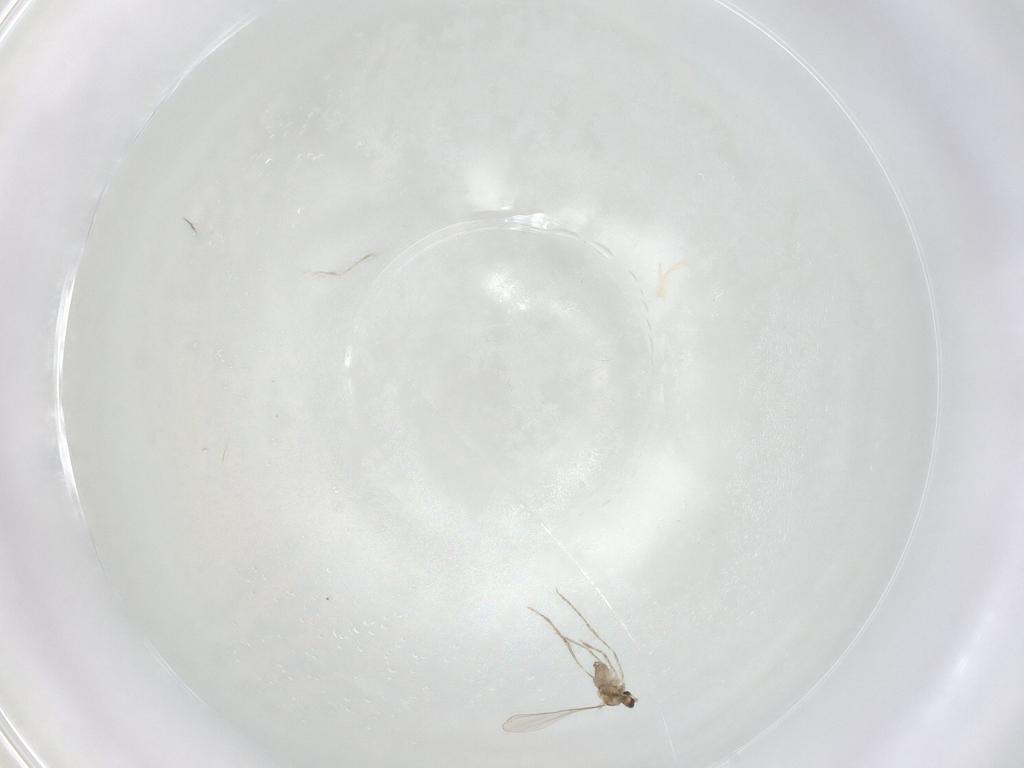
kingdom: Animalia
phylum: Arthropoda
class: Insecta
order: Diptera
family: Cecidomyiidae
